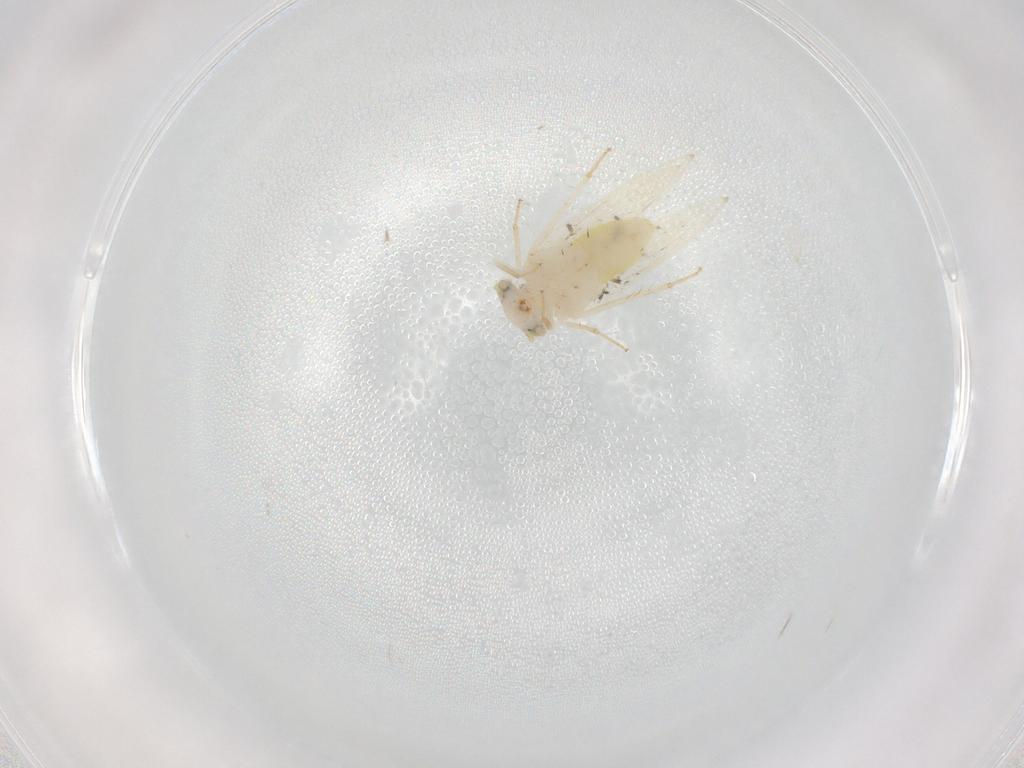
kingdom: Animalia
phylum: Arthropoda
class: Insecta
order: Psocodea
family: Lepidopsocidae
